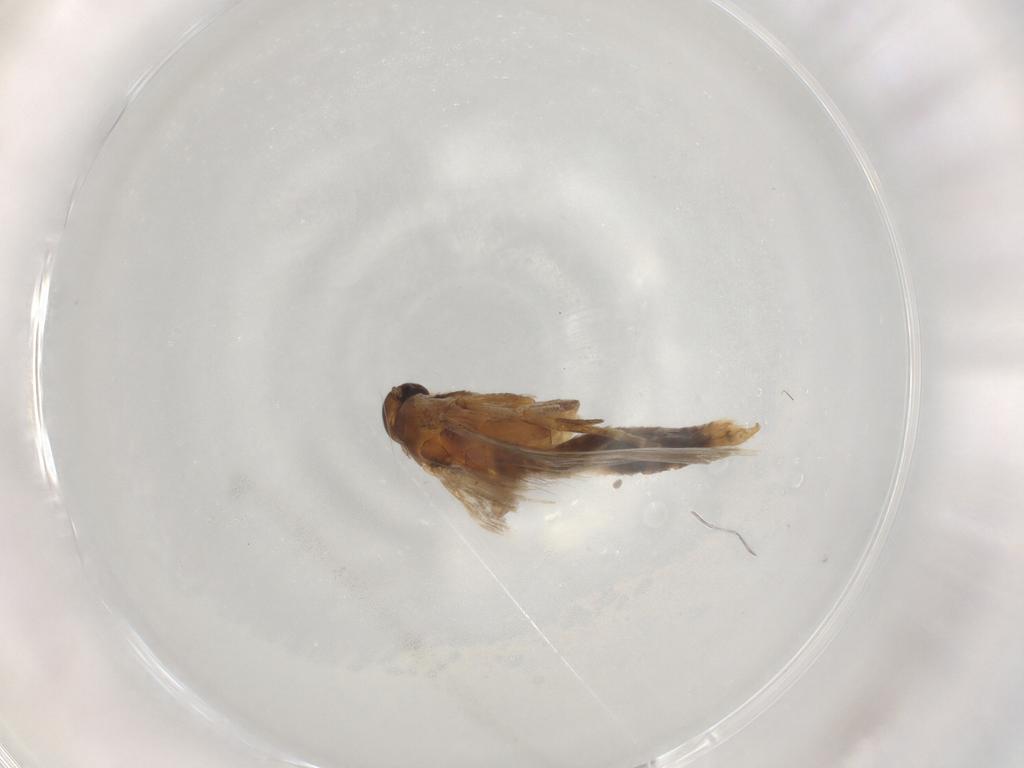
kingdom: Animalia
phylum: Arthropoda
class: Insecta
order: Lepidoptera
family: Gelechiidae
